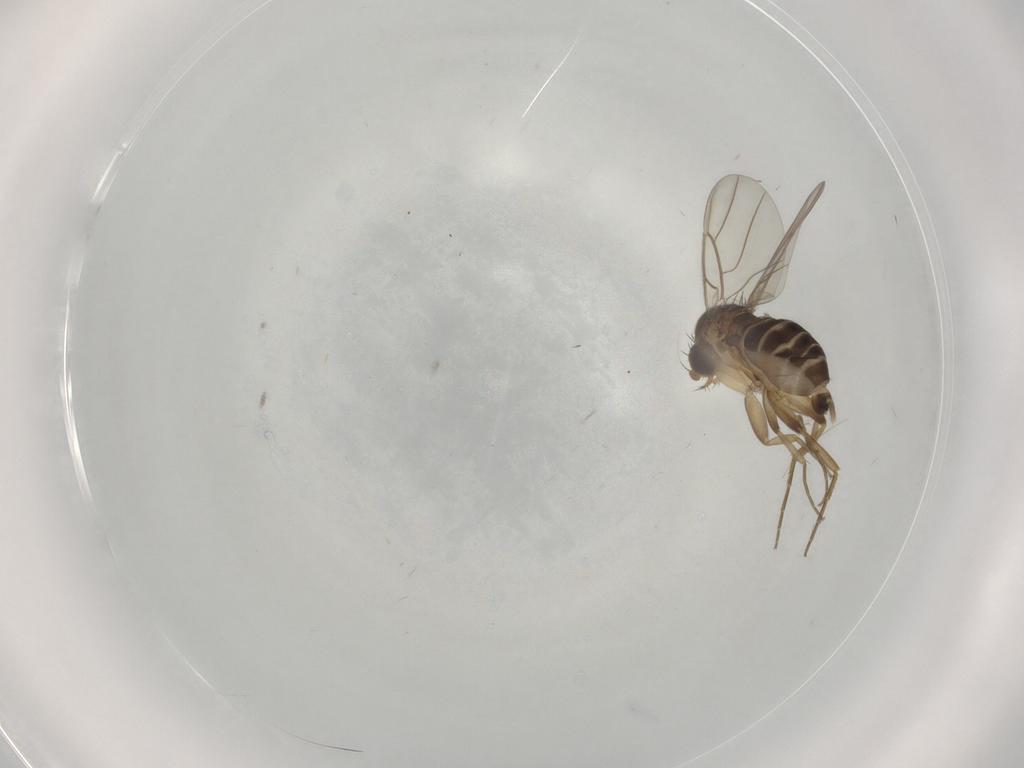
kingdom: Animalia
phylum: Arthropoda
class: Insecta
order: Diptera
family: Phoridae
